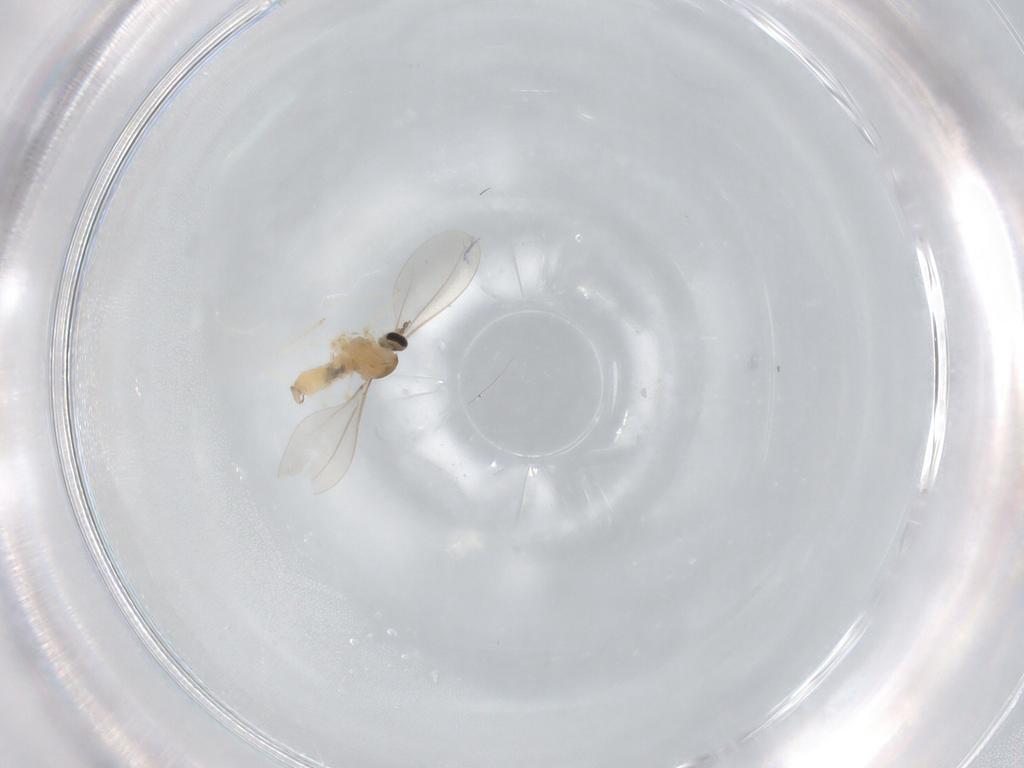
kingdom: Animalia
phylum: Arthropoda
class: Insecta
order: Diptera
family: Cecidomyiidae
